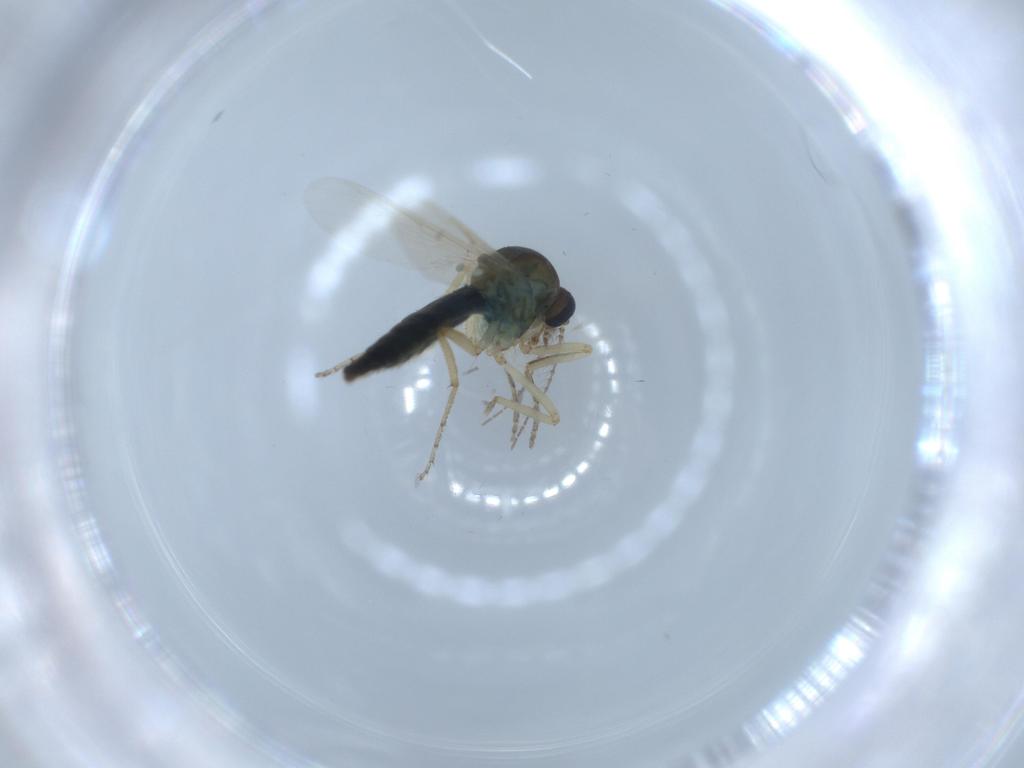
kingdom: Animalia
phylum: Arthropoda
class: Insecta
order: Diptera
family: Ceratopogonidae
